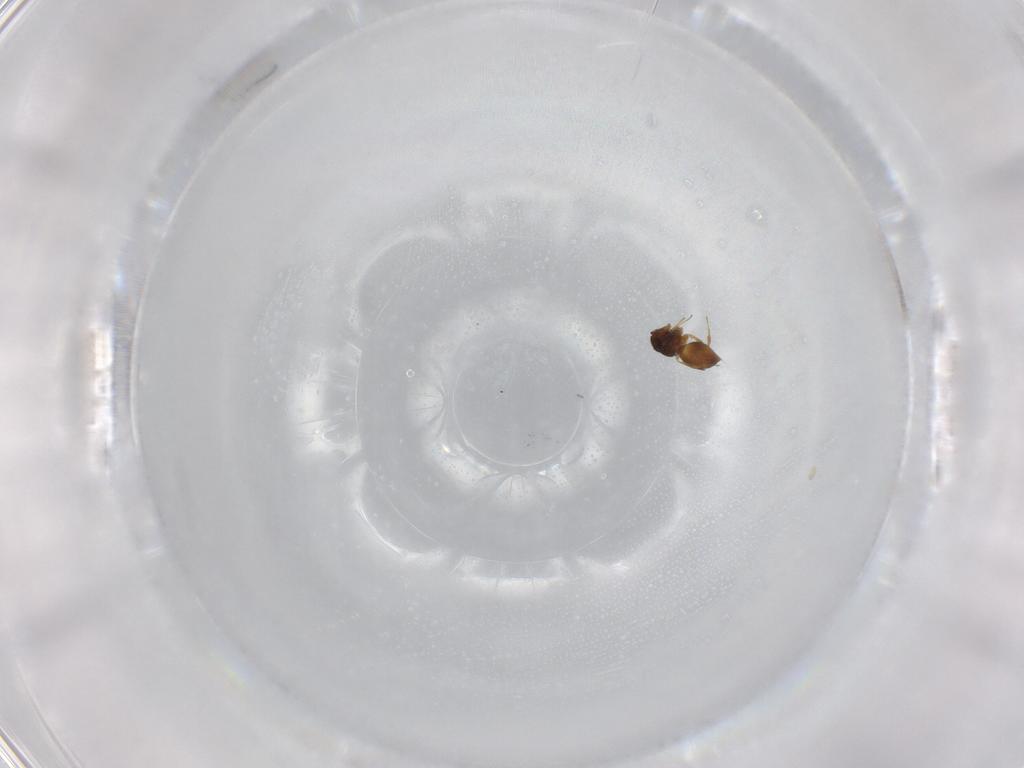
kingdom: Animalia
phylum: Arthropoda
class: Insecta
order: Hymenoptera
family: Ceraphronidae
